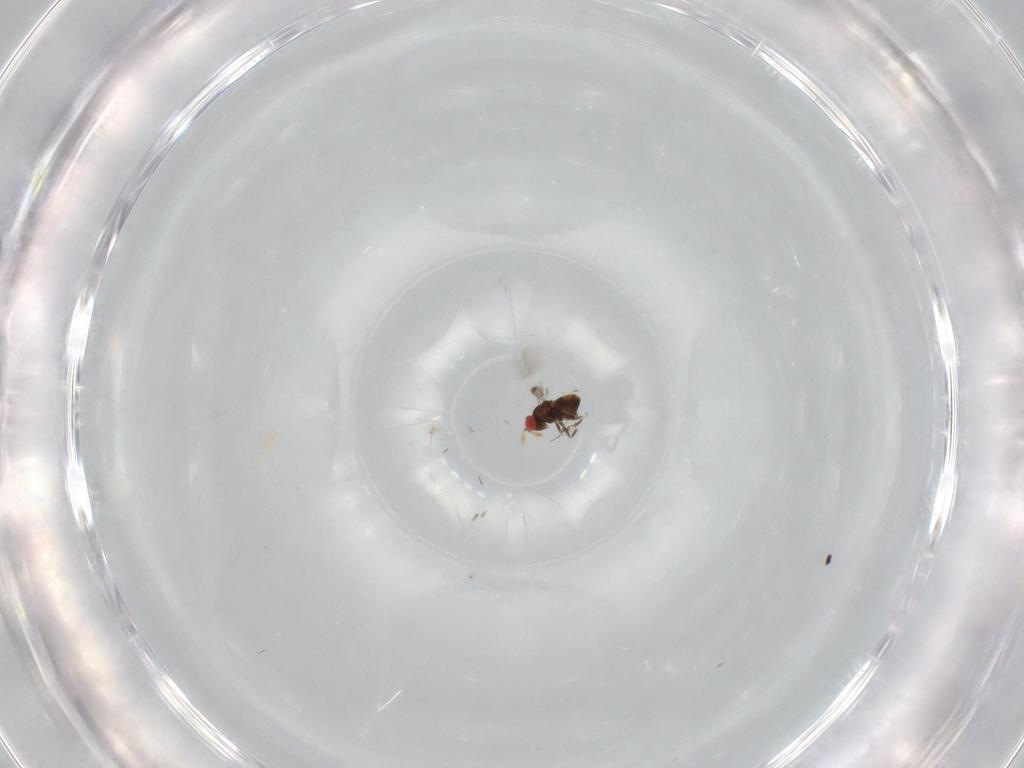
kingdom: Animalia
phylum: Arthropoda
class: Insecta
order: Hymenoptera
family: Trichogrammatidae
